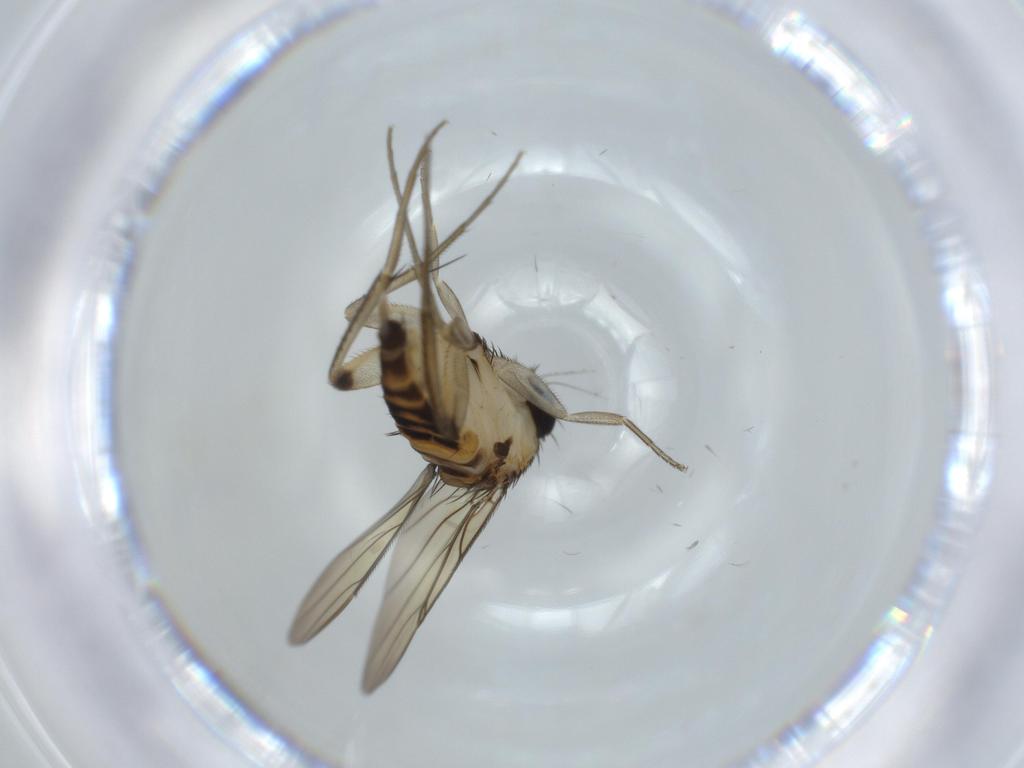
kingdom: Animalia
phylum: Arthropoda
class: Insecta
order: Diptera
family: Phoridae
